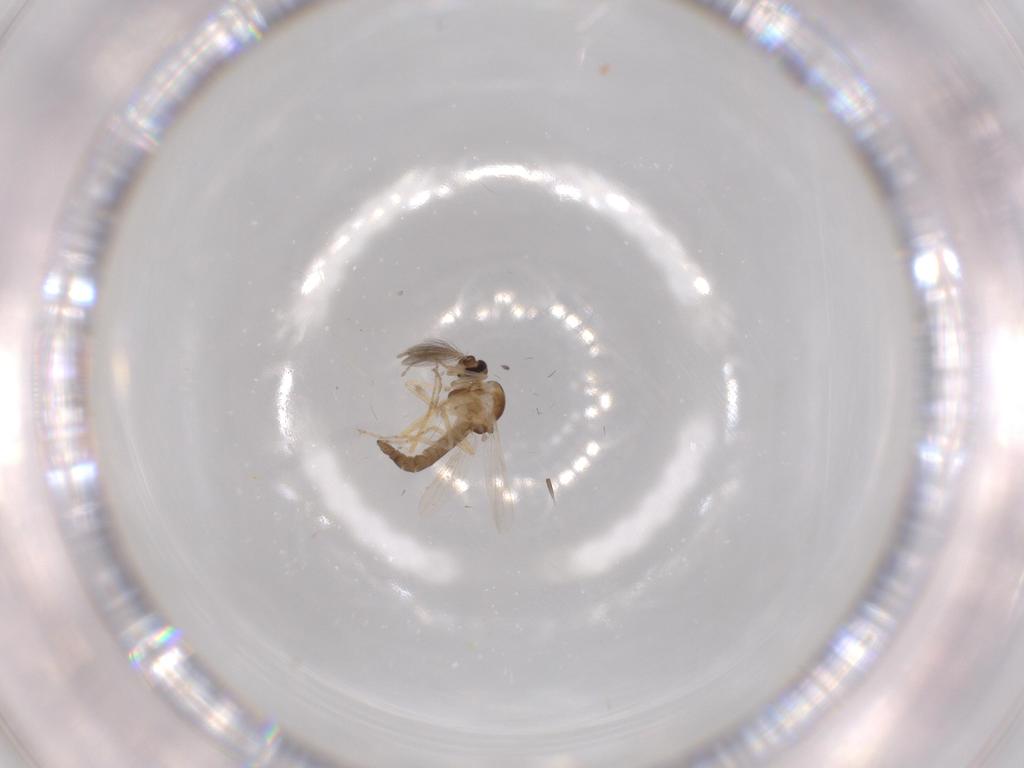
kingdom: Animalia
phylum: Arthropoda
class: Insecta
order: Diptera
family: Ceratopogonidae
